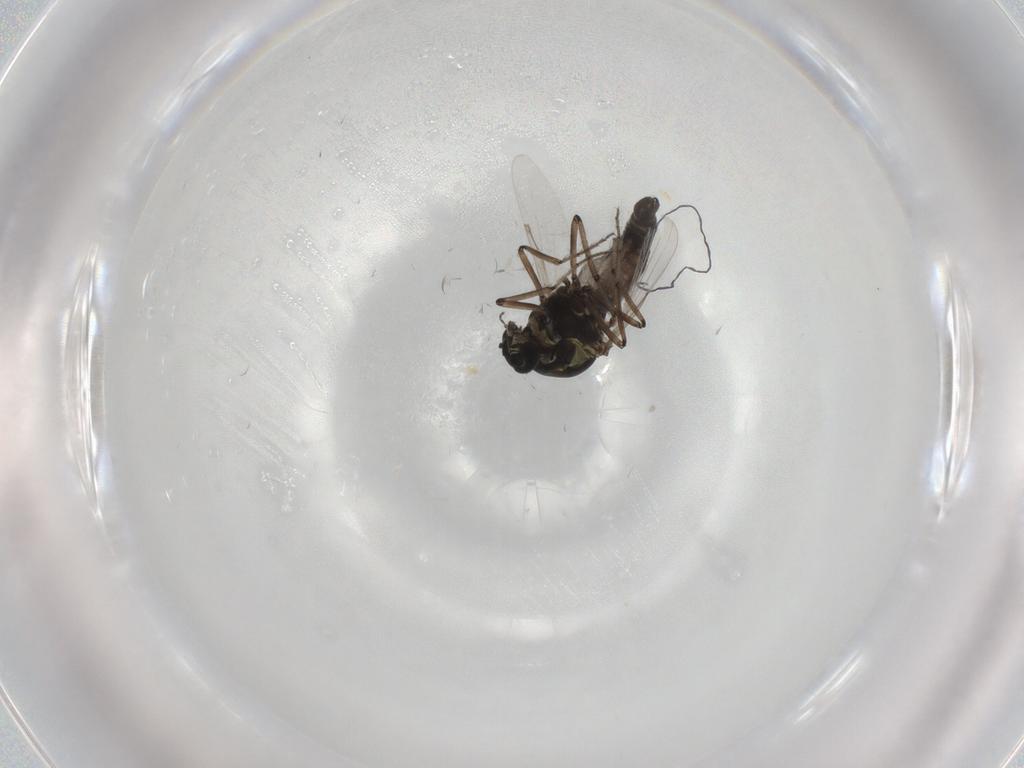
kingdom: Animalia
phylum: Arthropoda
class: Insecta
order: Diptera
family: Ceratopogonidae
